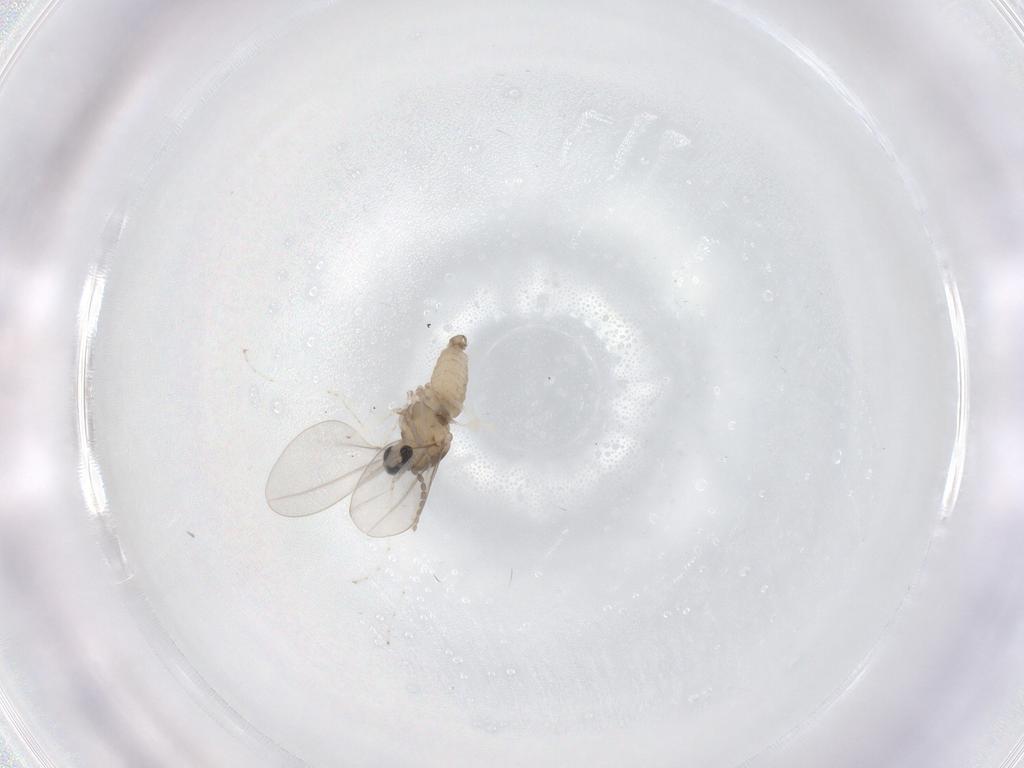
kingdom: Animalia
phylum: Arthropoda
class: Insecta
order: Diptera
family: Cecidomyiidae
